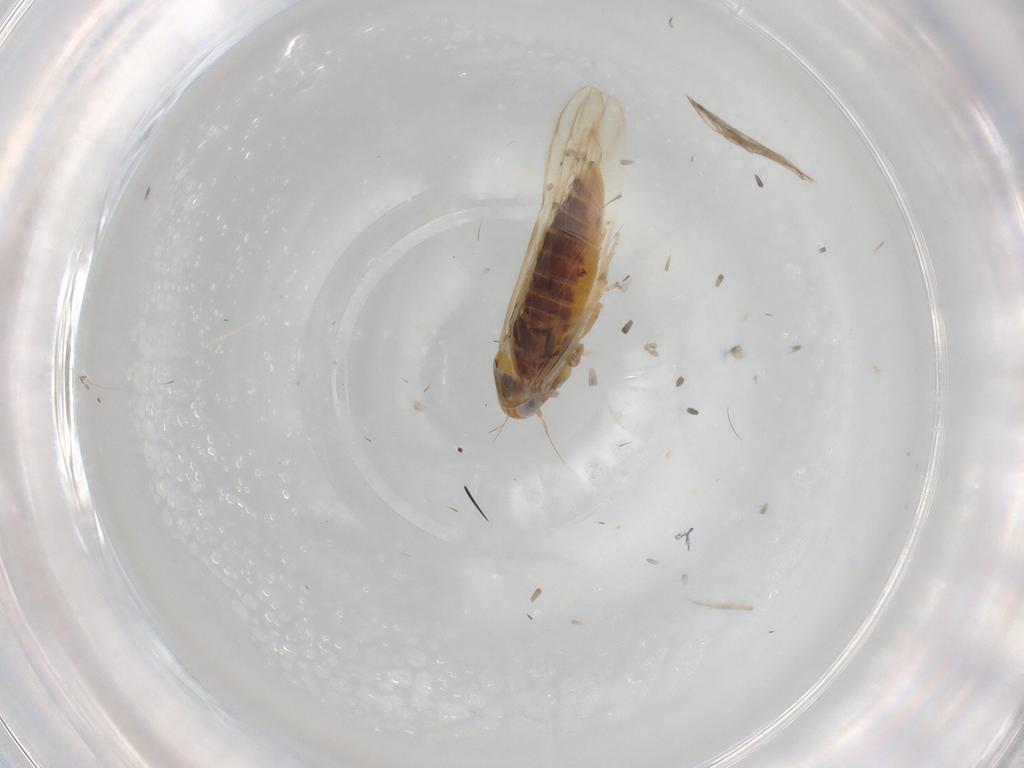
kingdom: Animalia
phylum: Arthropoda
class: Insecta
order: Hemiptera
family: Cicadellidae
